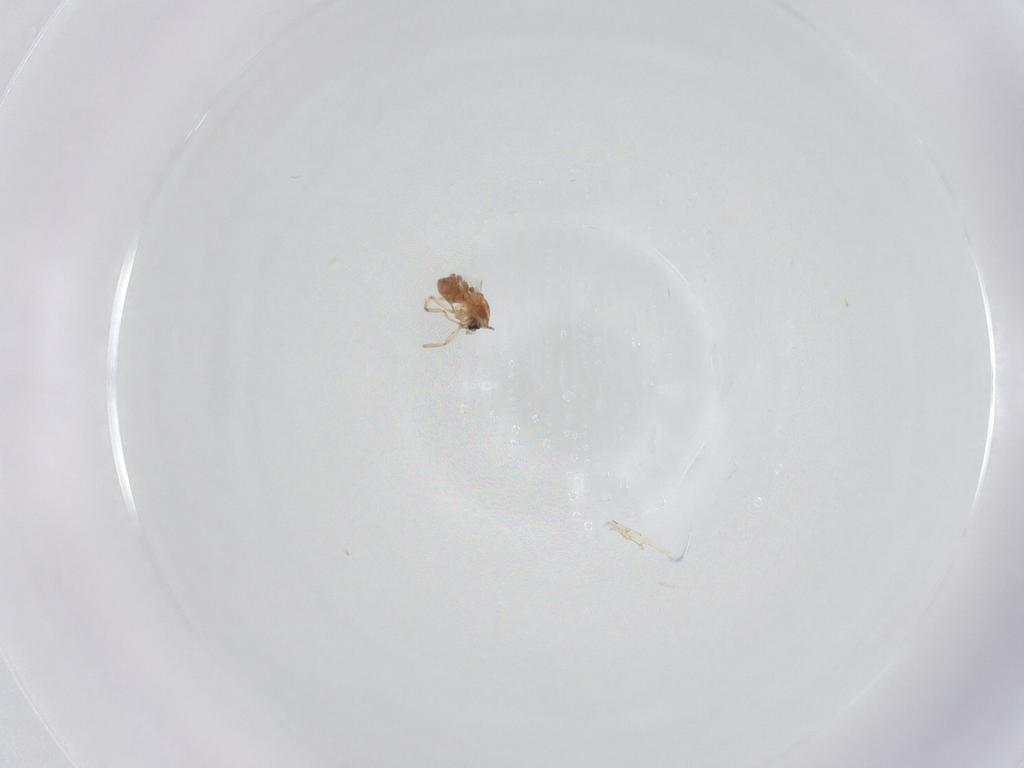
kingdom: Animalia
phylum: Arthropoda
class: Insecta
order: Diptera
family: Ceratopogonidae
